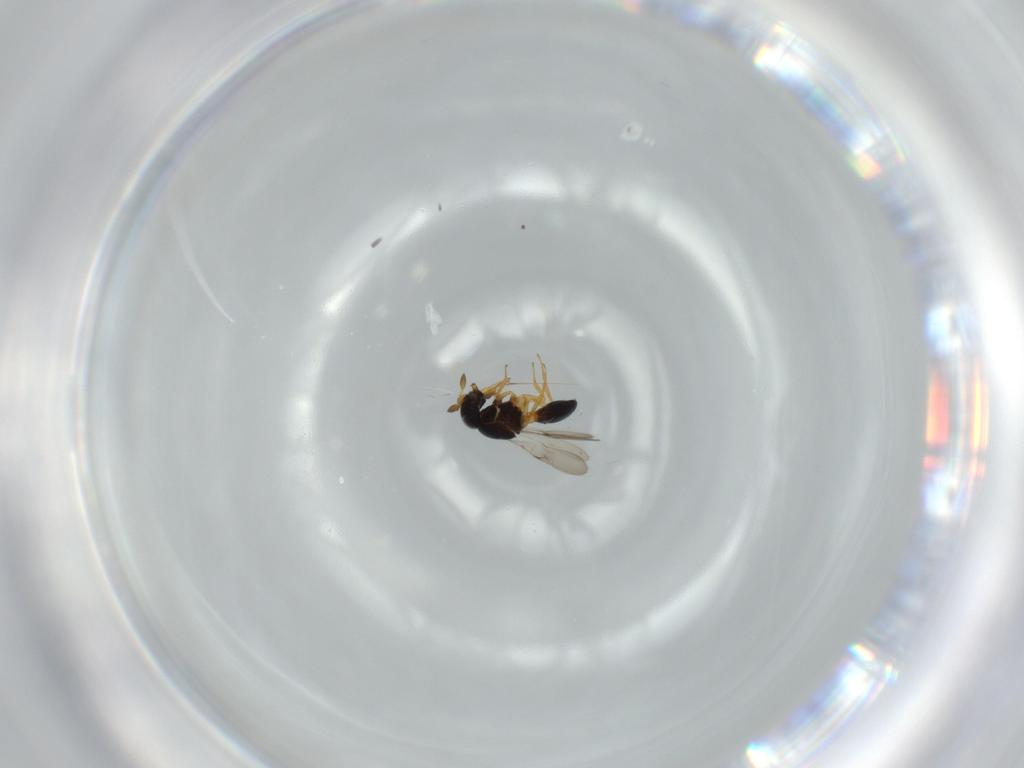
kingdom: Animalia
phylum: Arthropoda
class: Insecta
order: Hymenoptera
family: Scelionidae
